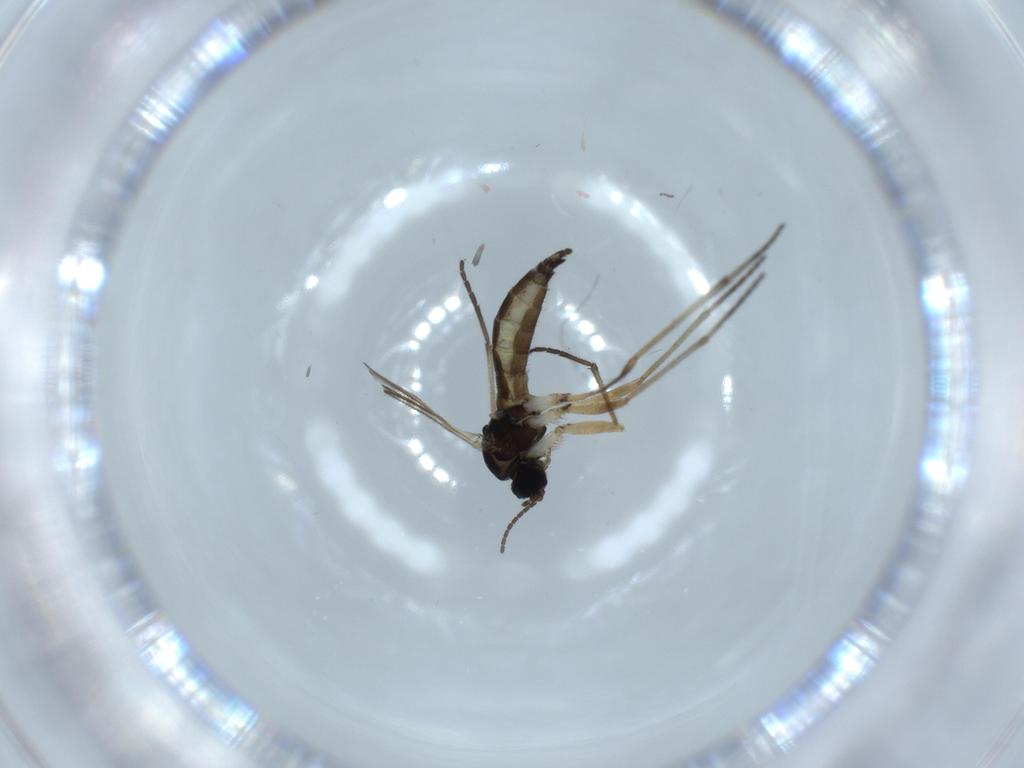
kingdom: Animalia
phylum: Arthropoda
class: Insecta
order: Diptera
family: Sciaridae
